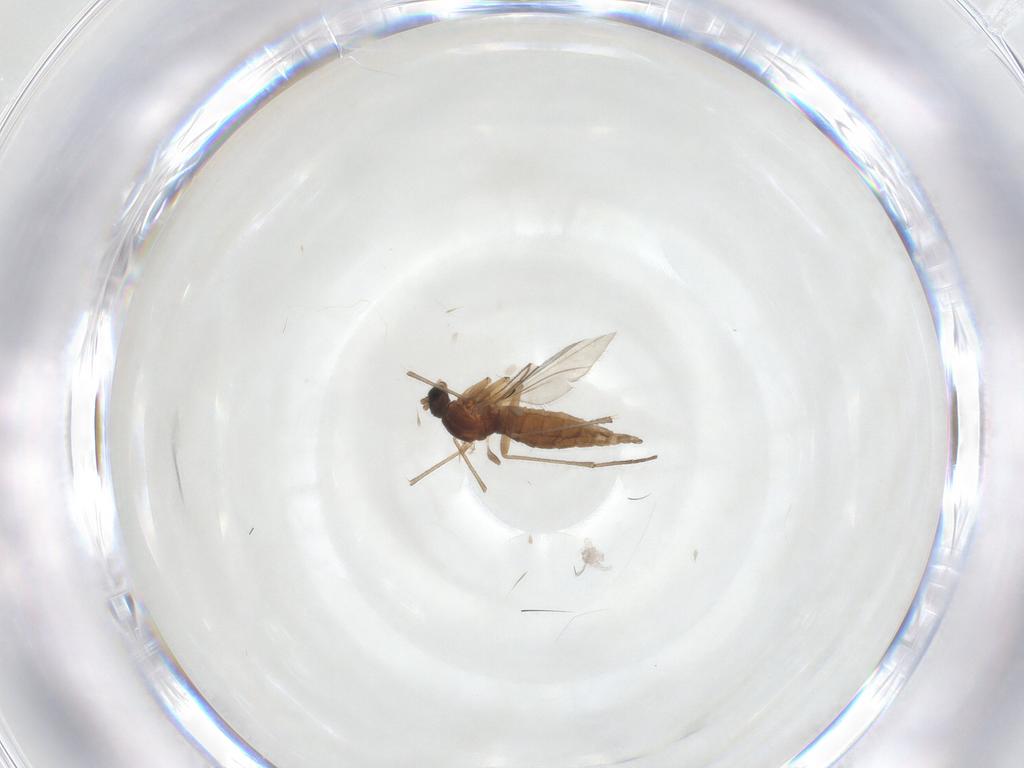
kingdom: Animalia
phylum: Arthropoda
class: Insecta
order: Diptera
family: Sciaridae
